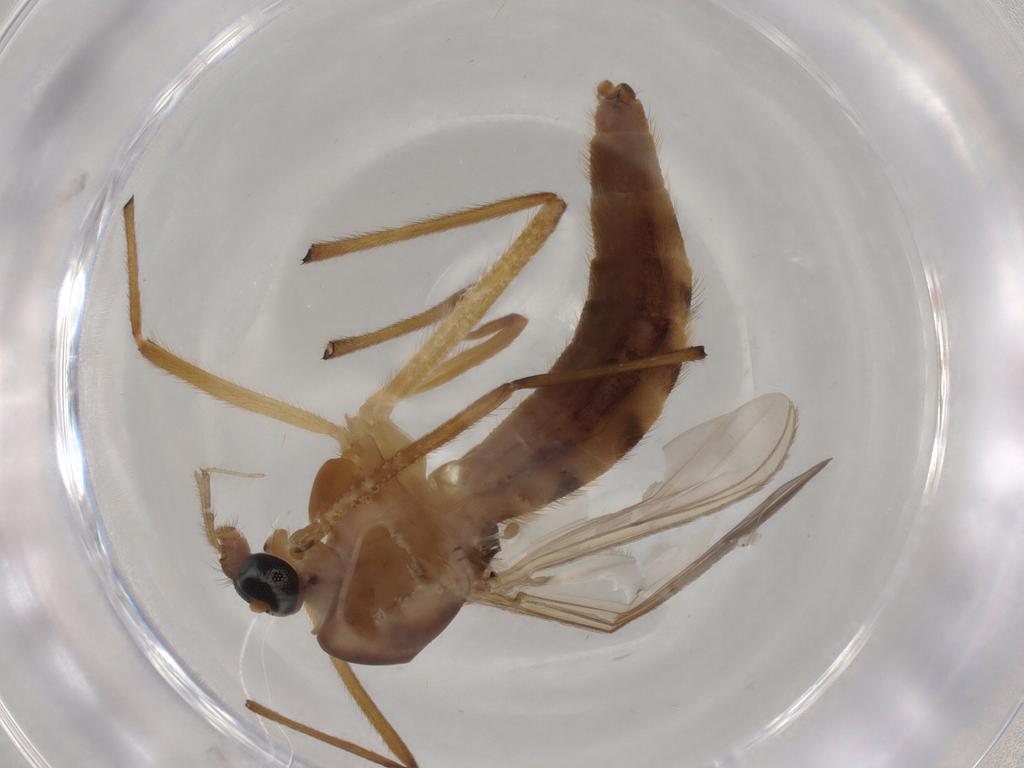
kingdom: Animalia
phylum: Arthropoda
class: Insecta
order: Diptera
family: Chironomidae
